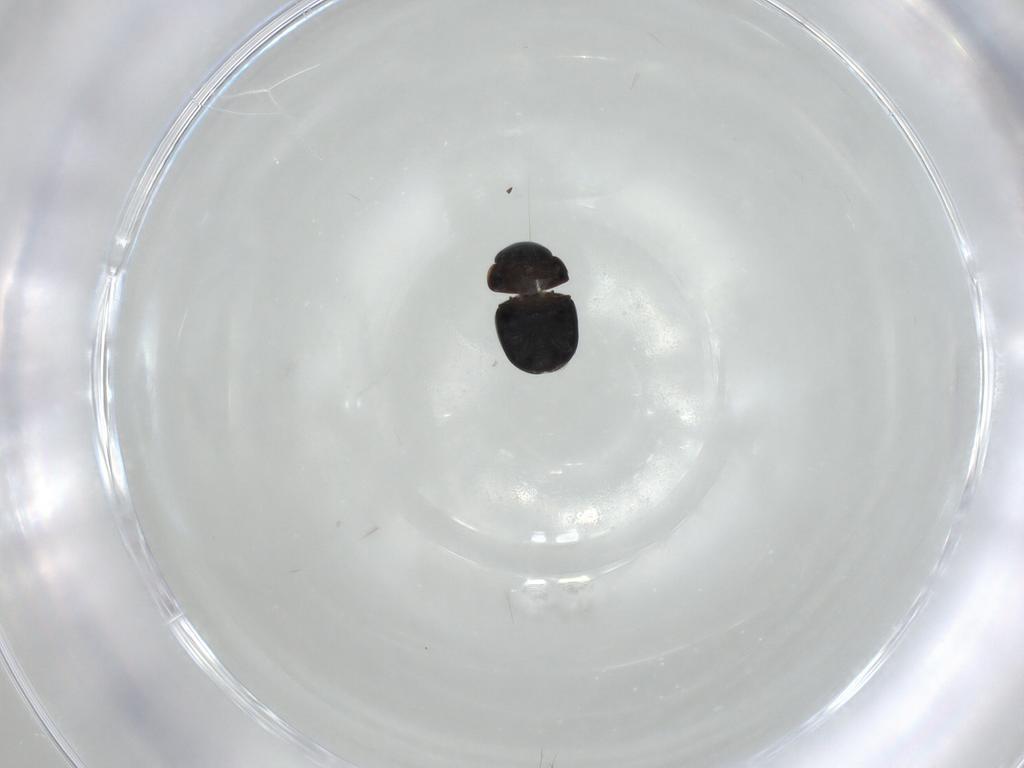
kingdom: Animalia
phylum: Arthropoda
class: Insecta
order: Coleoptera
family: Cybocephalidae
